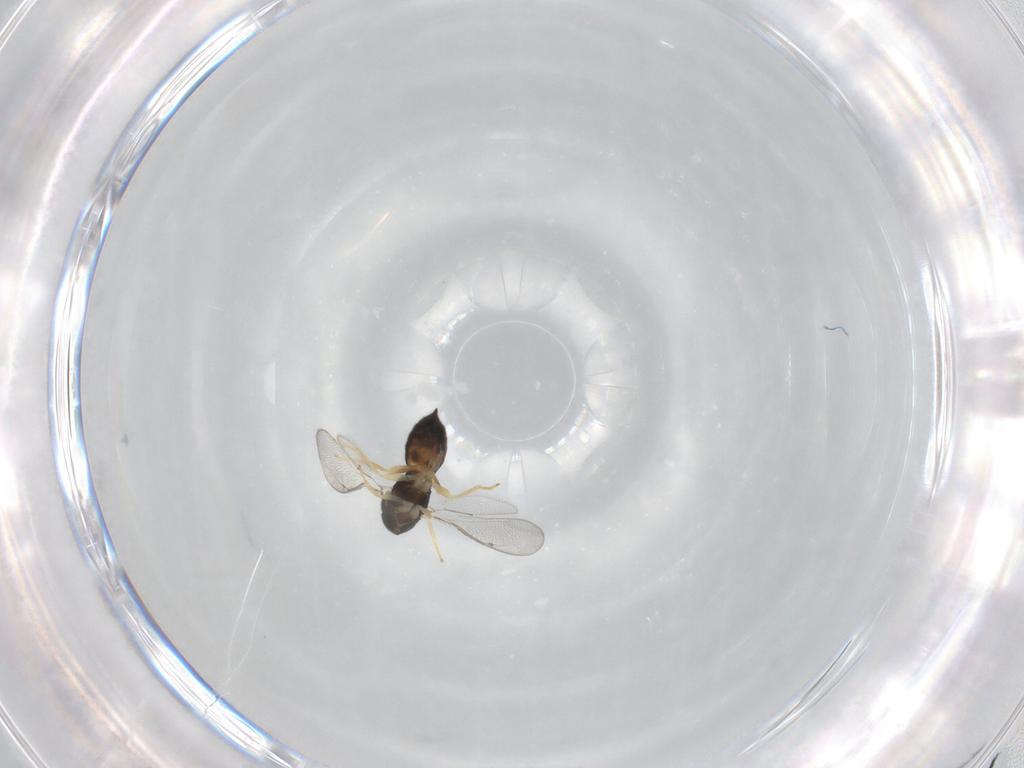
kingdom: Animalia
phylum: Arthropoda
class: Insecta
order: Hymenoptera
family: Eulophidae
